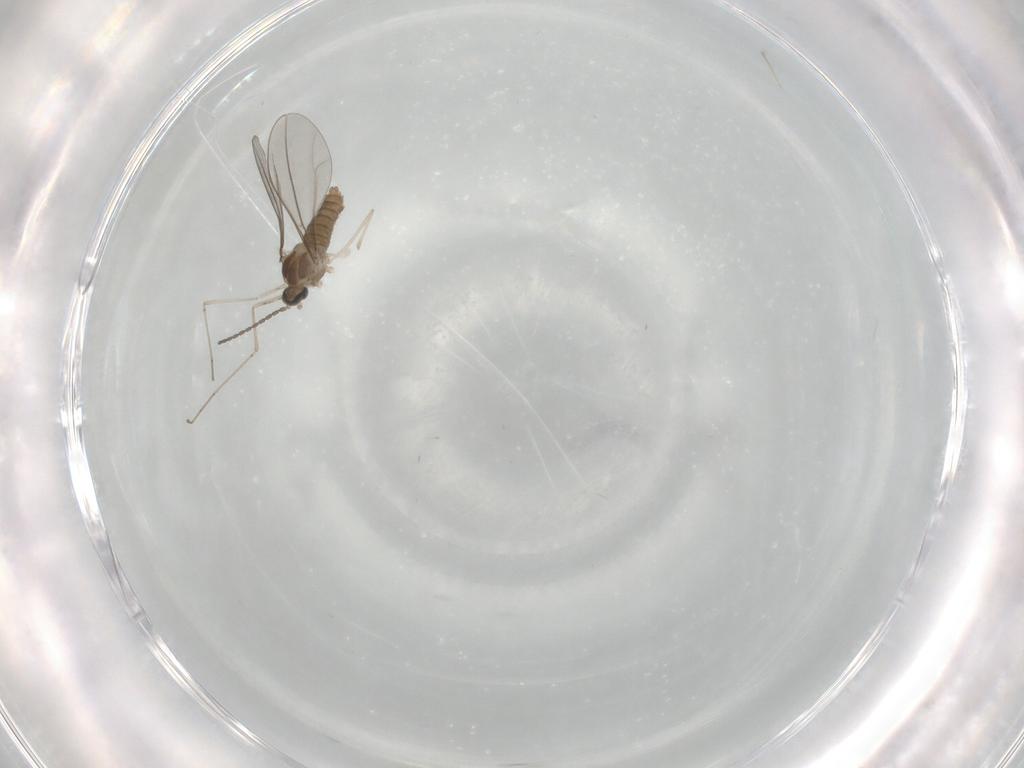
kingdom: Animalia
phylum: Arthropoda
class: Insecta
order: Diptera
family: Cecidomyiidae
